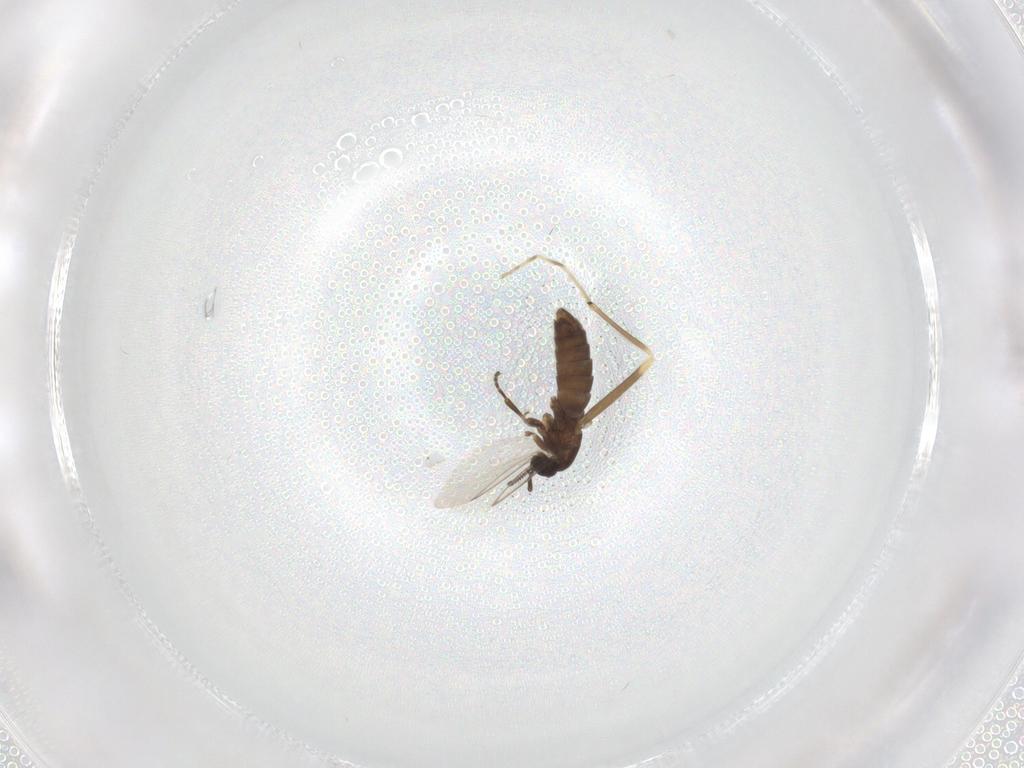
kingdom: Animalia
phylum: Arthropoda
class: Insecta
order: Diptera
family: Scatopsidae
